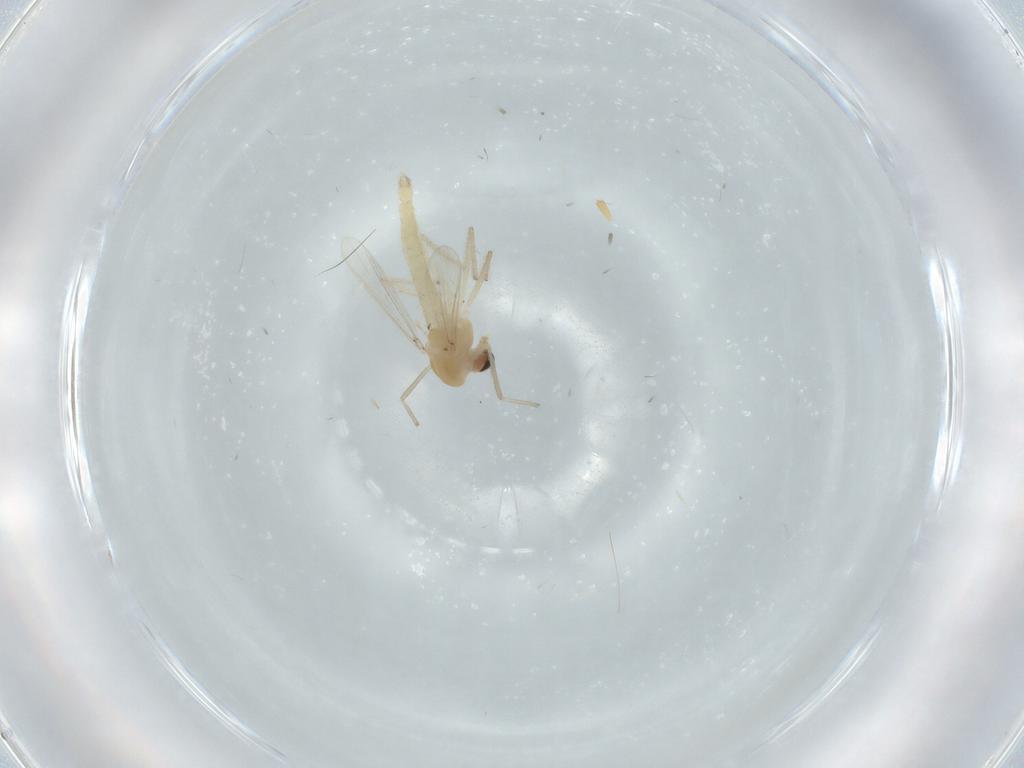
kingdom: Animalia
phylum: Arthropoda
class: Insecta
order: Diptera
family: Chironomidae
